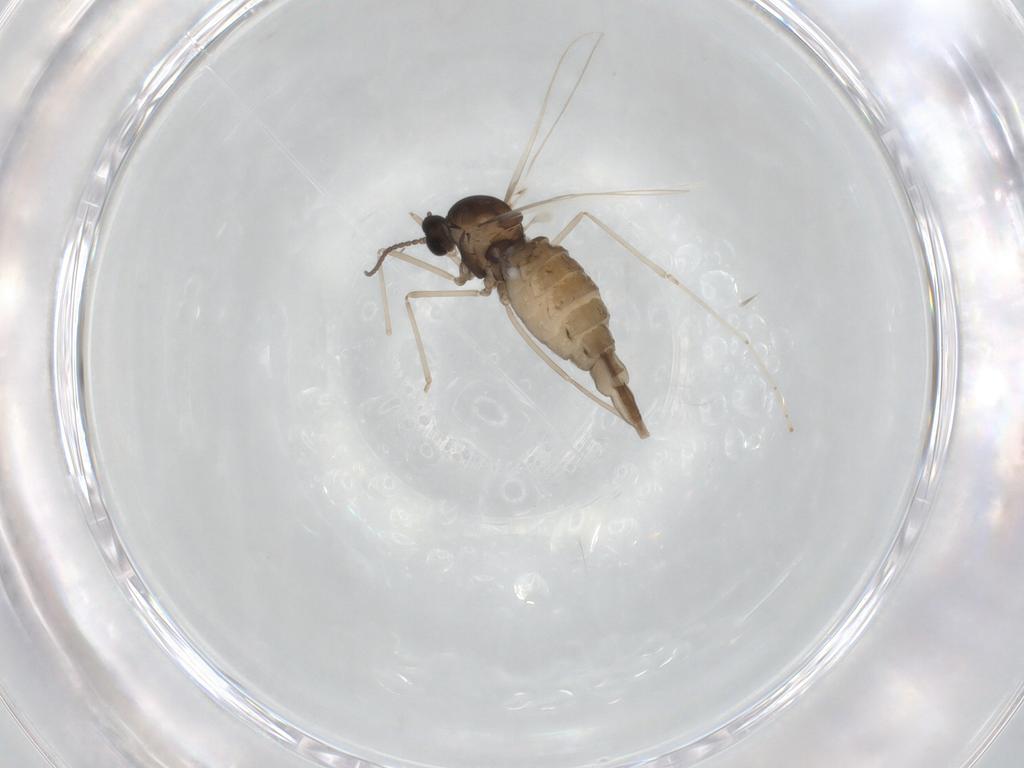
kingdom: Animalia
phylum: Arthropoda
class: Insecta
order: Diptera
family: Cecidomyiidae
